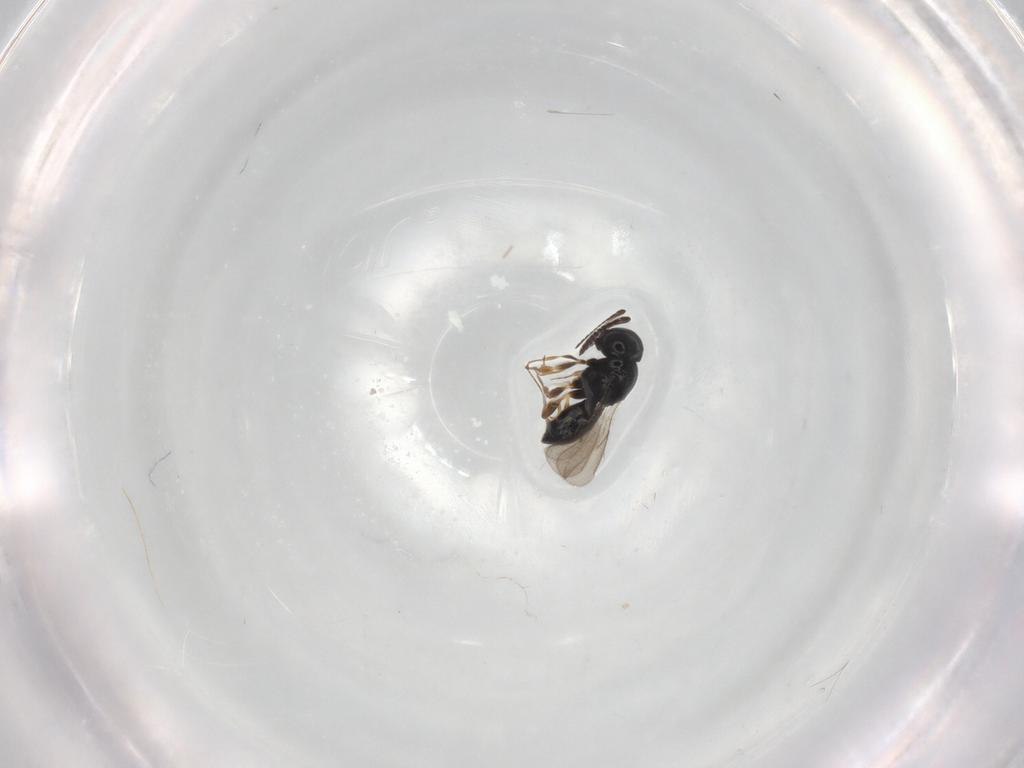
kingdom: Animalia
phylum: Arthropoda
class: Insecta
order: Hymenoptera
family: Scelionidae
